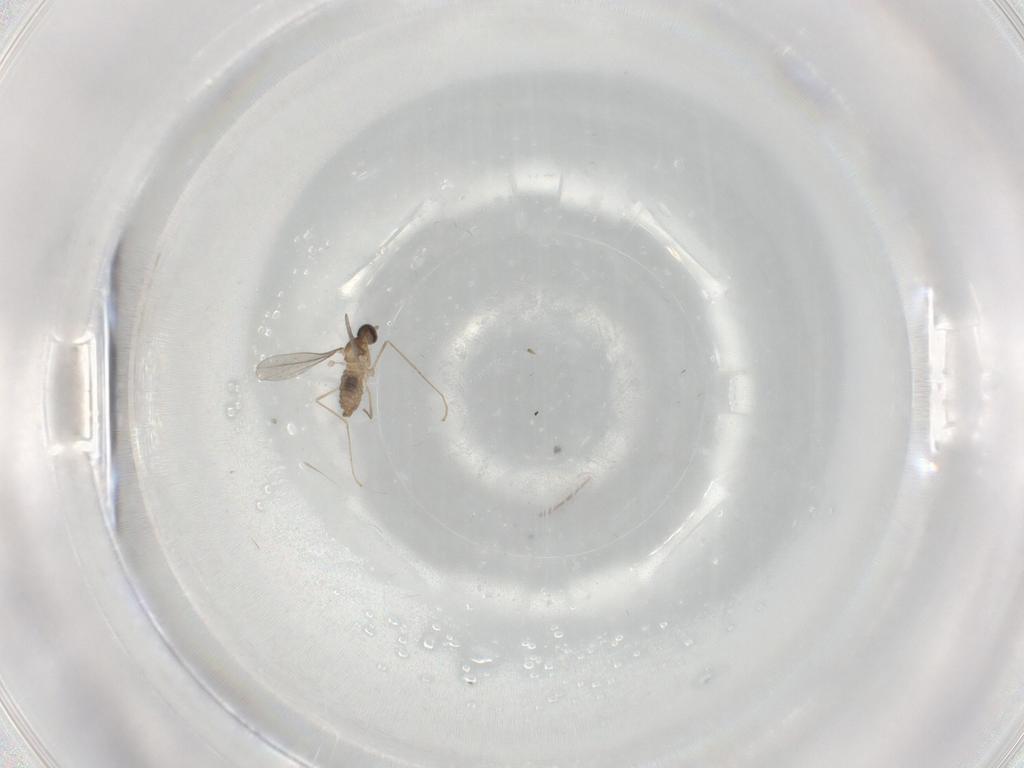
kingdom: Animalia
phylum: Arthropoda
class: Insecta
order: Diptera
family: Cecidomyiidae
